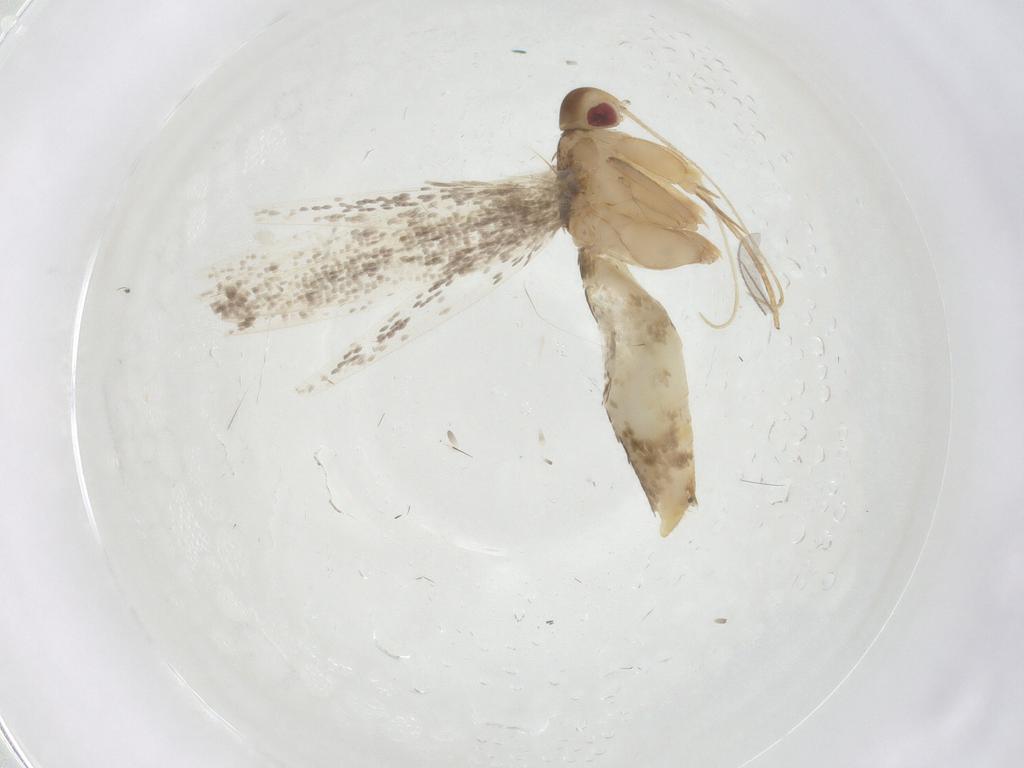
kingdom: Animalia
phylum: Arthropoda
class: Insecta
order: Lepidoptera
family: Cosmopterigidae
